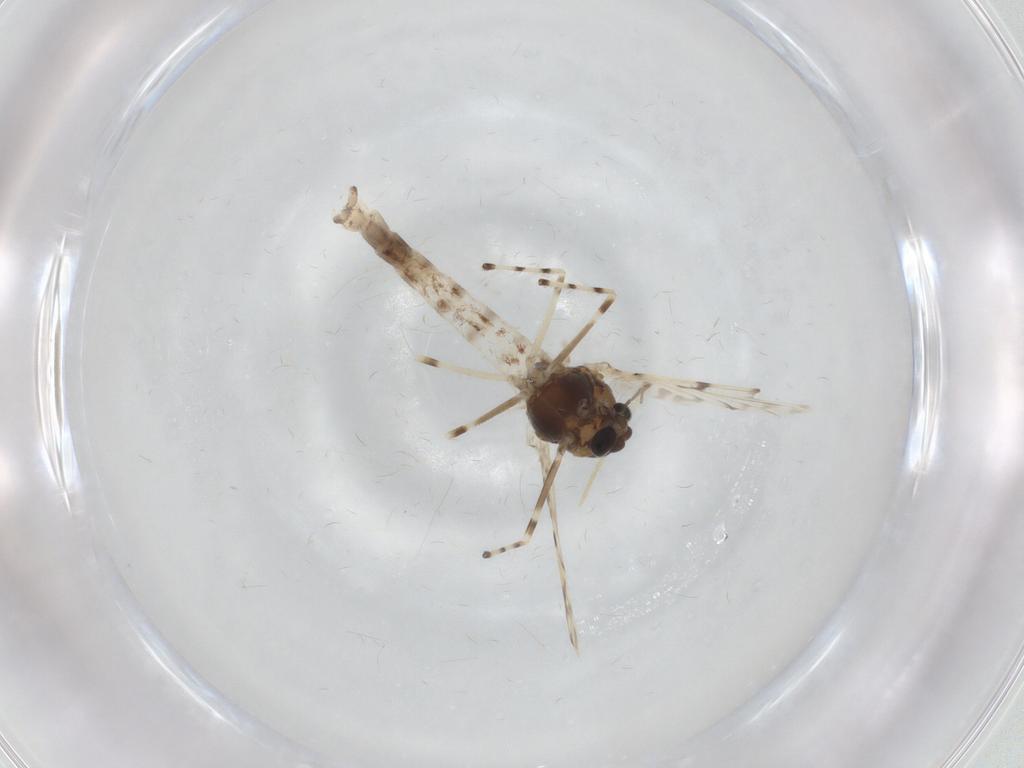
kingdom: Animalia
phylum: Arthropoda
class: Insecta
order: Diptera
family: Chironomidae
